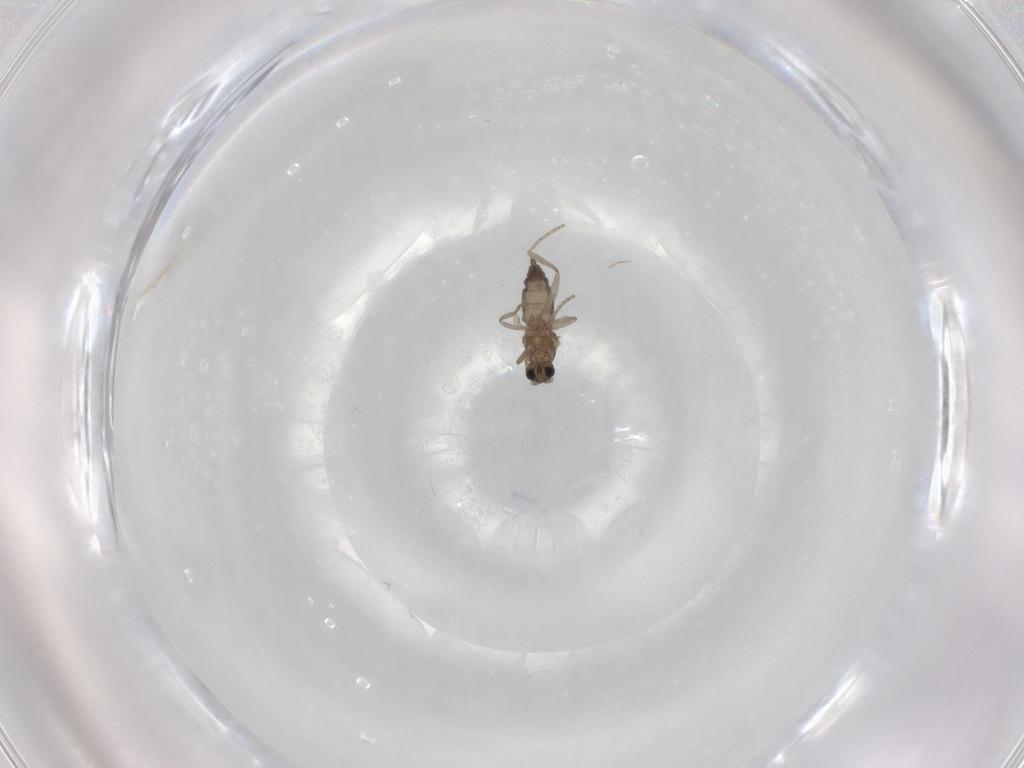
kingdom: Animalia
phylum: Arthropoda
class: Insecta
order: Diptera
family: Cecidomyiidae
